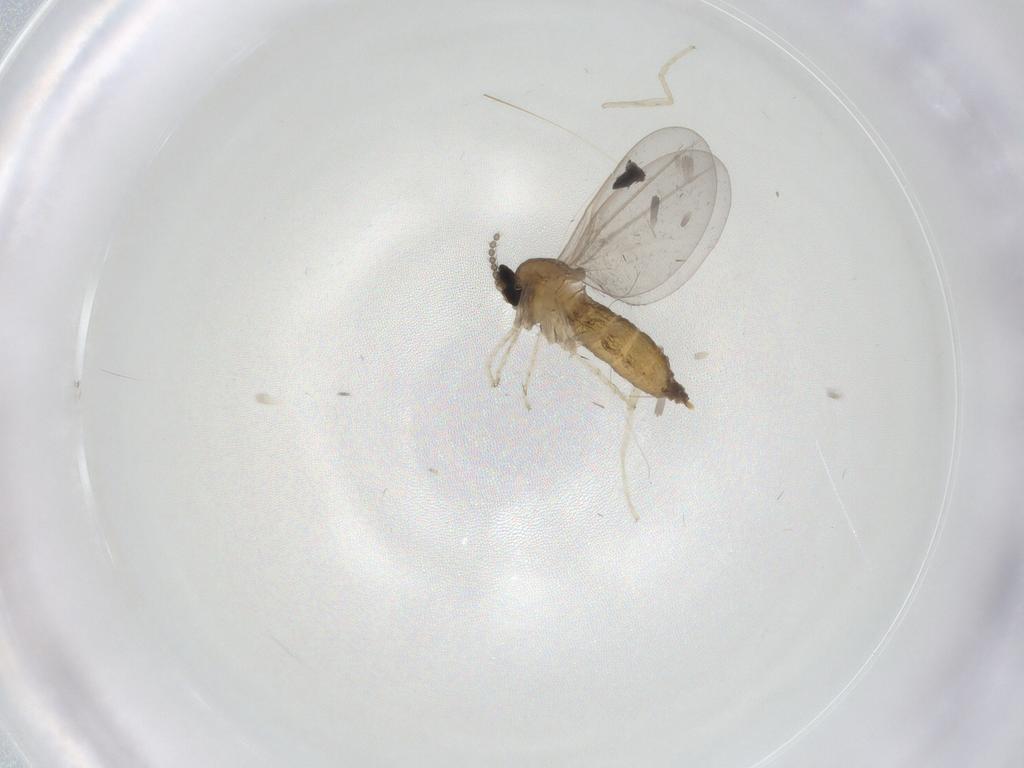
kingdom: Animalia
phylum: Arthropoda
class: Insecta
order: Diptera
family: Cecidomyiidae
